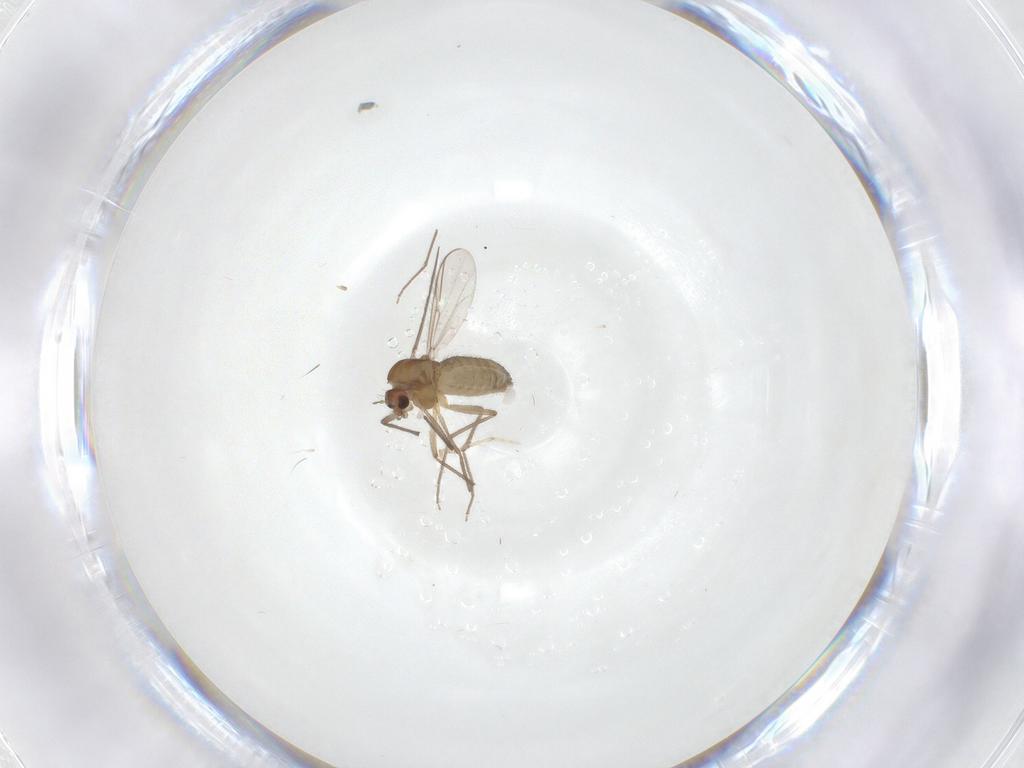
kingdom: Animalia
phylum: Arthropoda
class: Insecta
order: Diptera
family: Chironomidae
